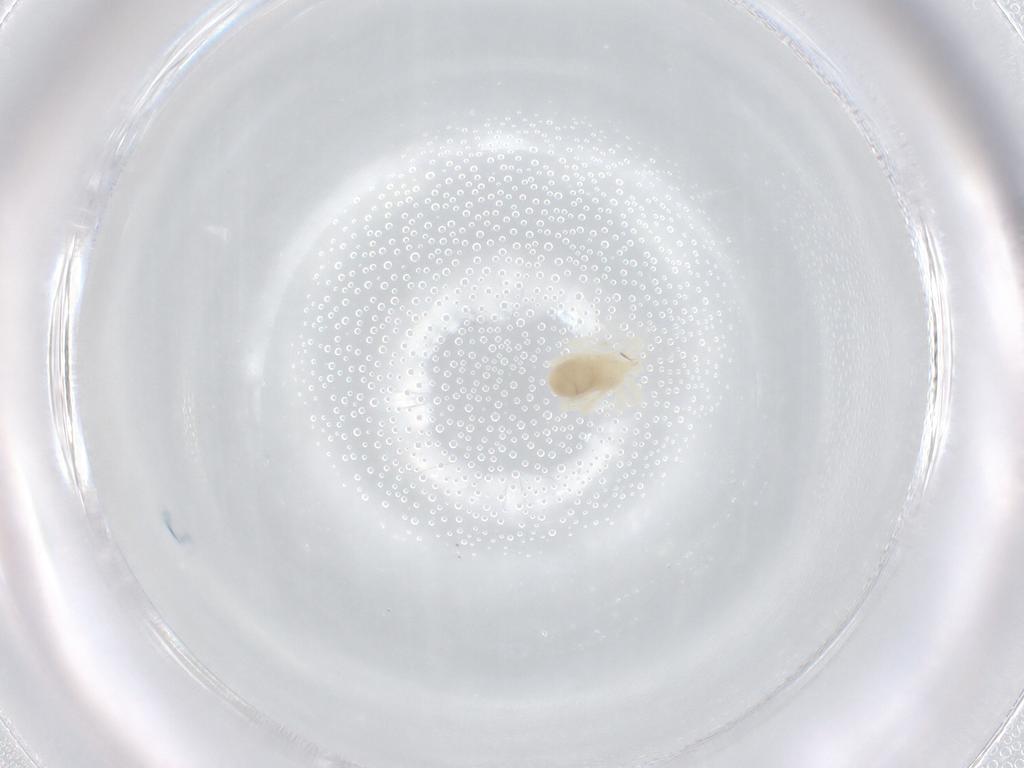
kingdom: Animalia
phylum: Arthropoda
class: Arachnida
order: Trombidiformes
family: Anystidae
